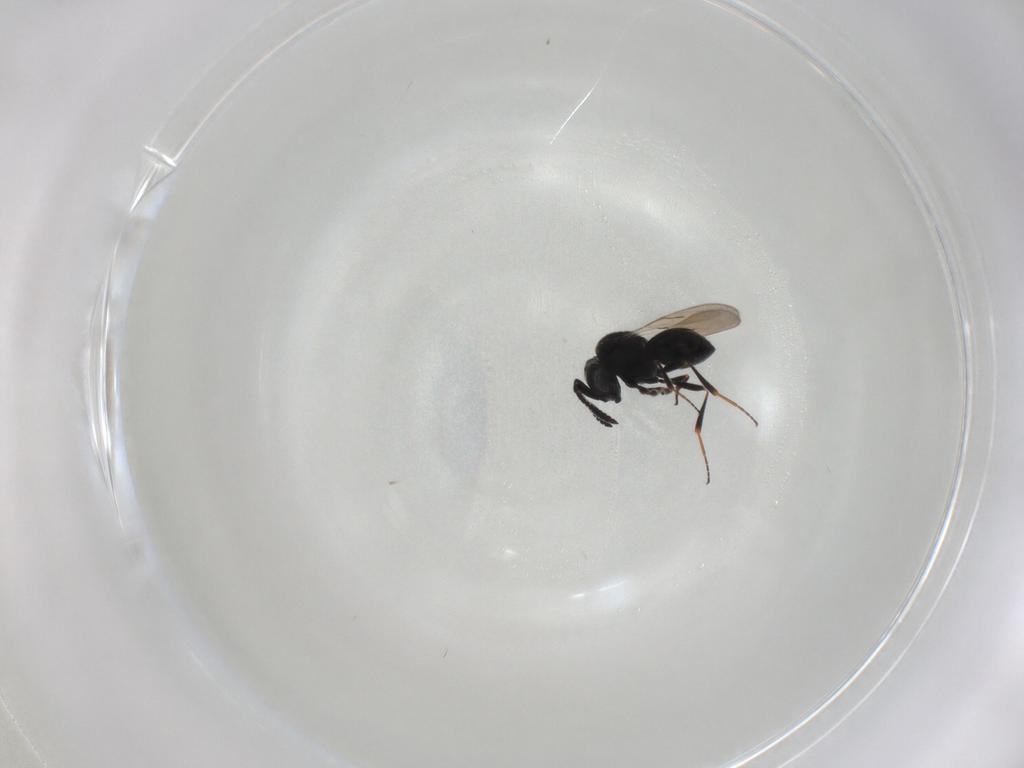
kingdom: Animalia
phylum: Arthropoda
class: Insecta
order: Hymenoptera
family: Scelionidae
